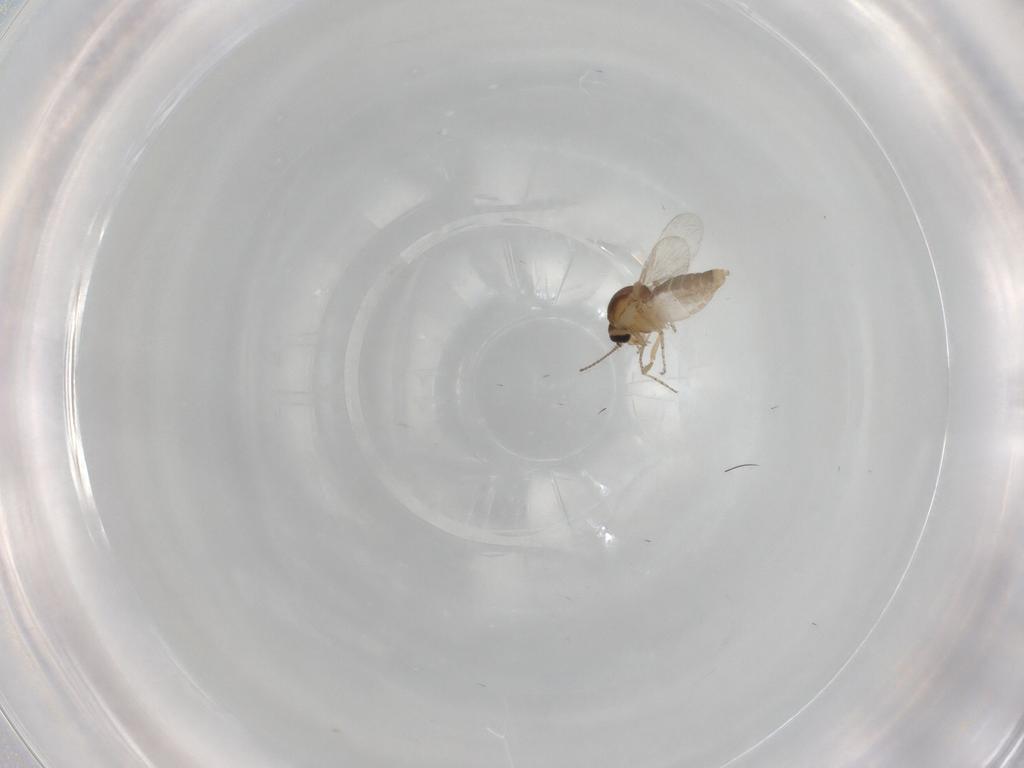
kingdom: Animalia
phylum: Arthropoda
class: Insecta
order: Diptera
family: Ceratopogonidae
